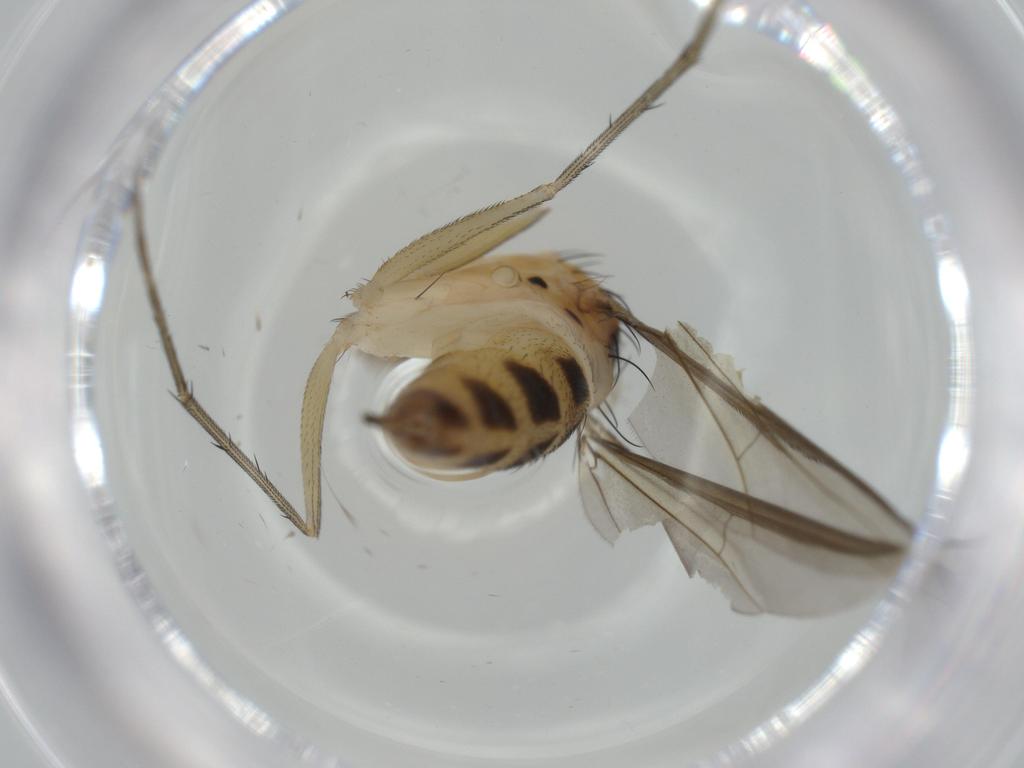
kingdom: Animalia
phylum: Arthropoda
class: Insecta
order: Diptera
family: Dolichopodidae
